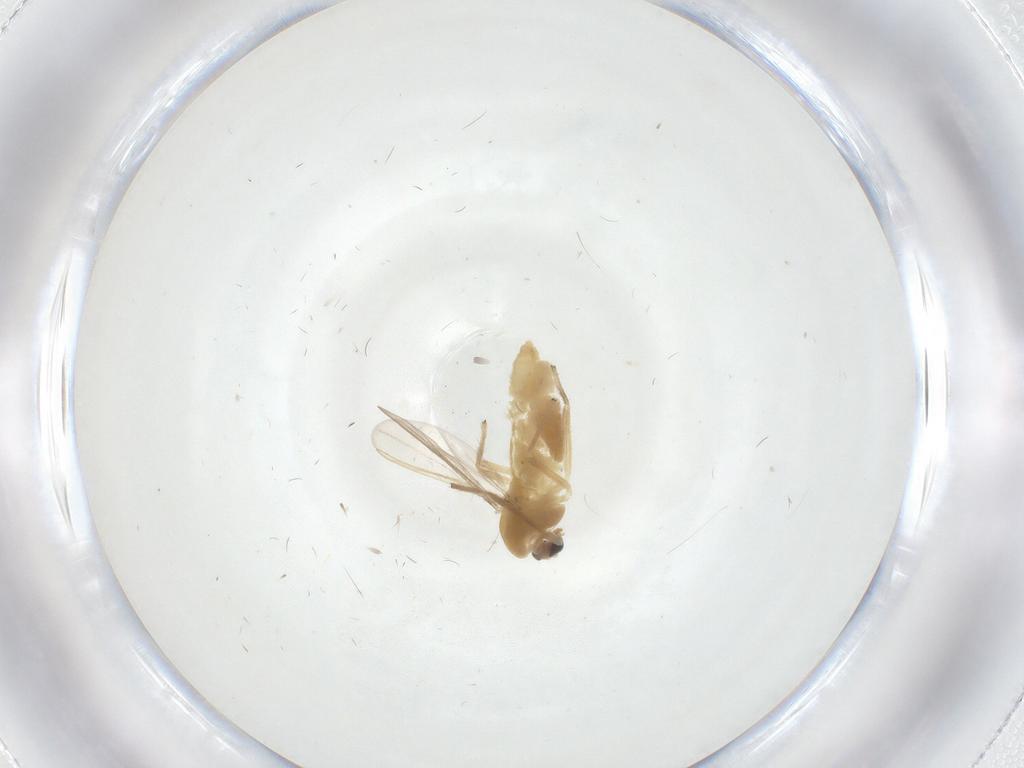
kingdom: Animalia
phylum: Arthropoda
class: Insecta
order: Diptera
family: Chironomidae
